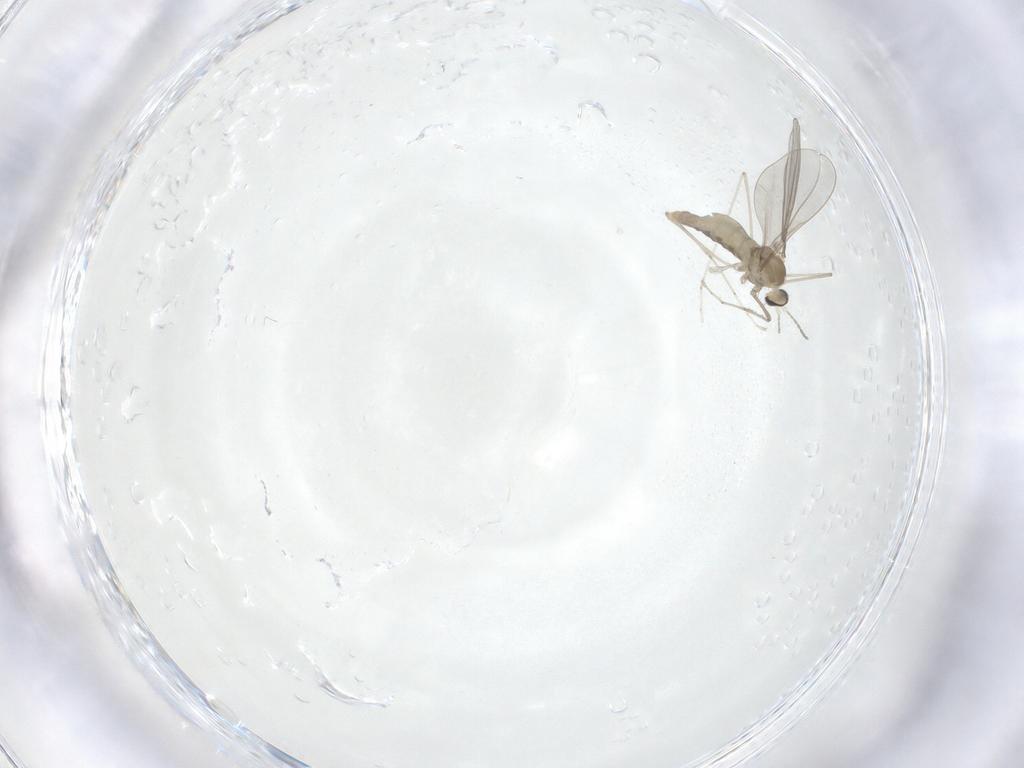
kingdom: Animalia
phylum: Arthropoda
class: Insecta
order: Diptera
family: Cecidomyiidae
